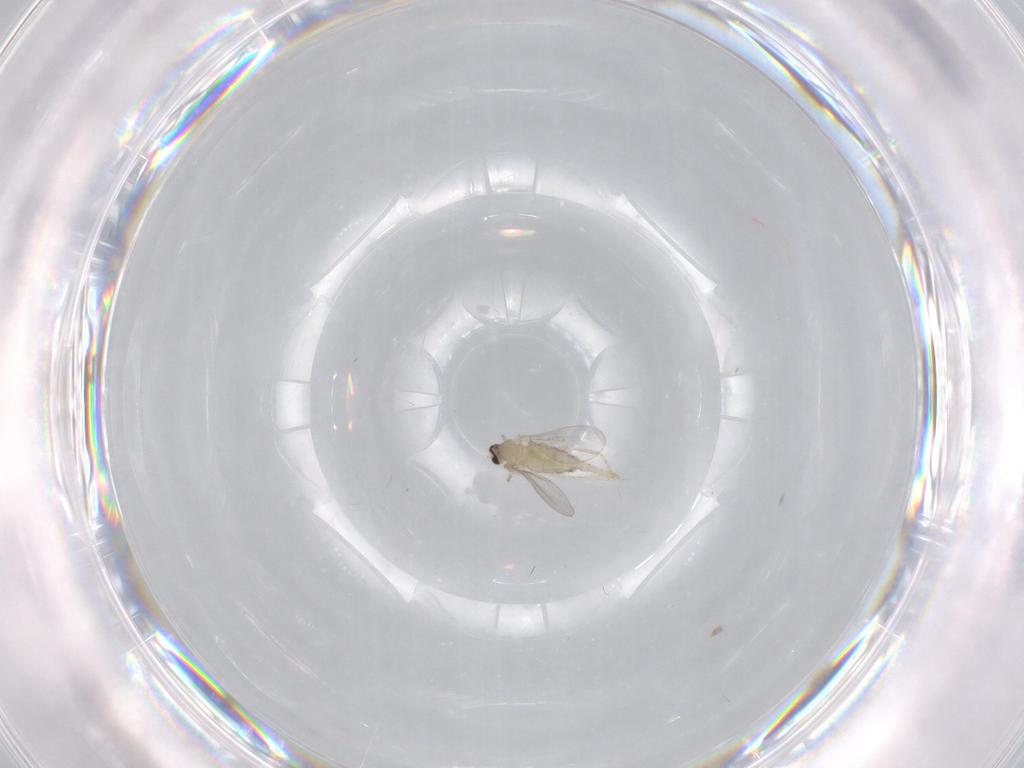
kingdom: Animalia
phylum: Arthropoda
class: Insecta
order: Diptera
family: Cecidomyiidae
